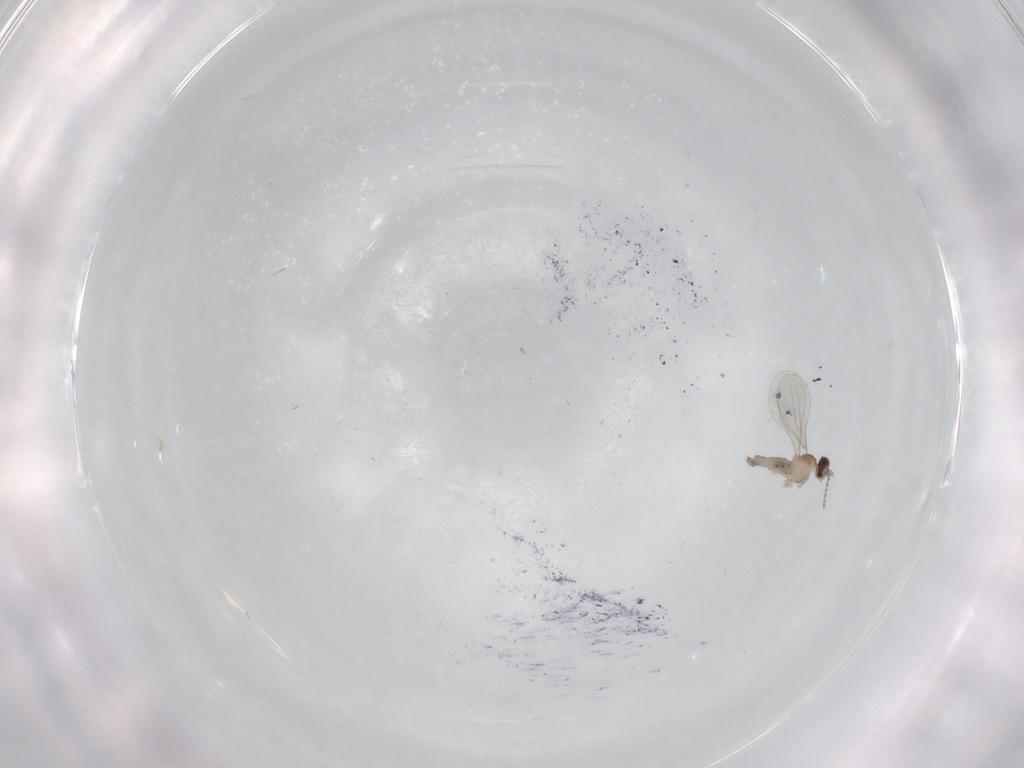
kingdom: Animalia
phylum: Arthropoda
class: Insecta
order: Diptera
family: Cecidomyiidae
